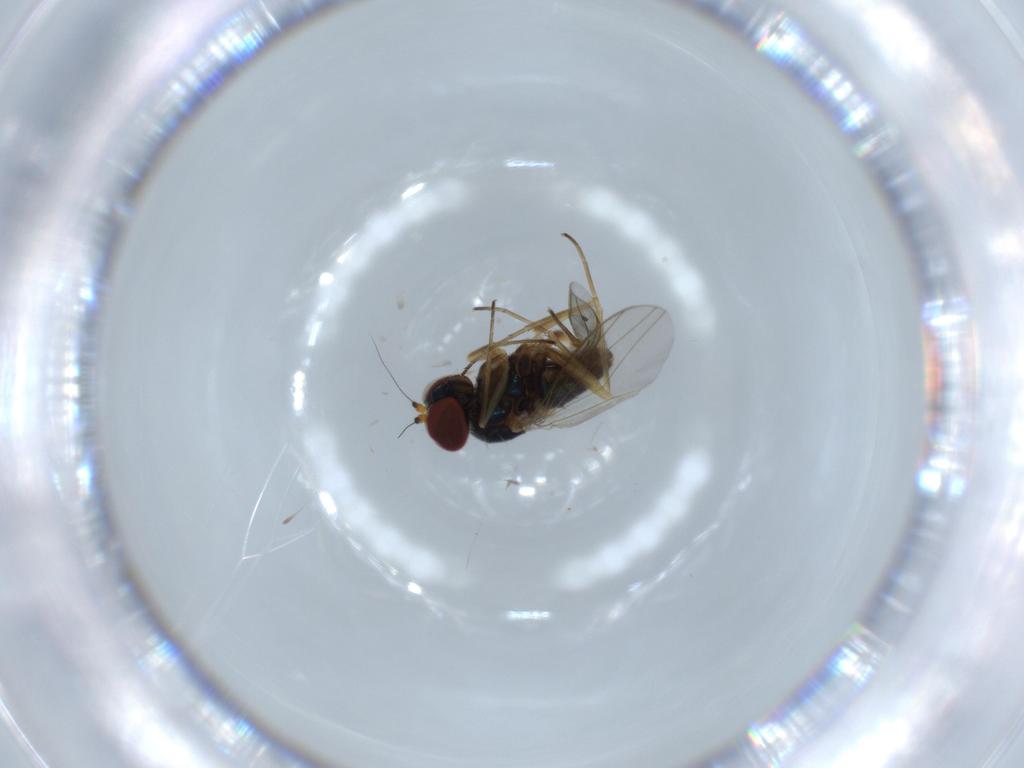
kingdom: Animalia
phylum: Arthropoda
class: Insecta
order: Diptera
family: Dolichopodidae
